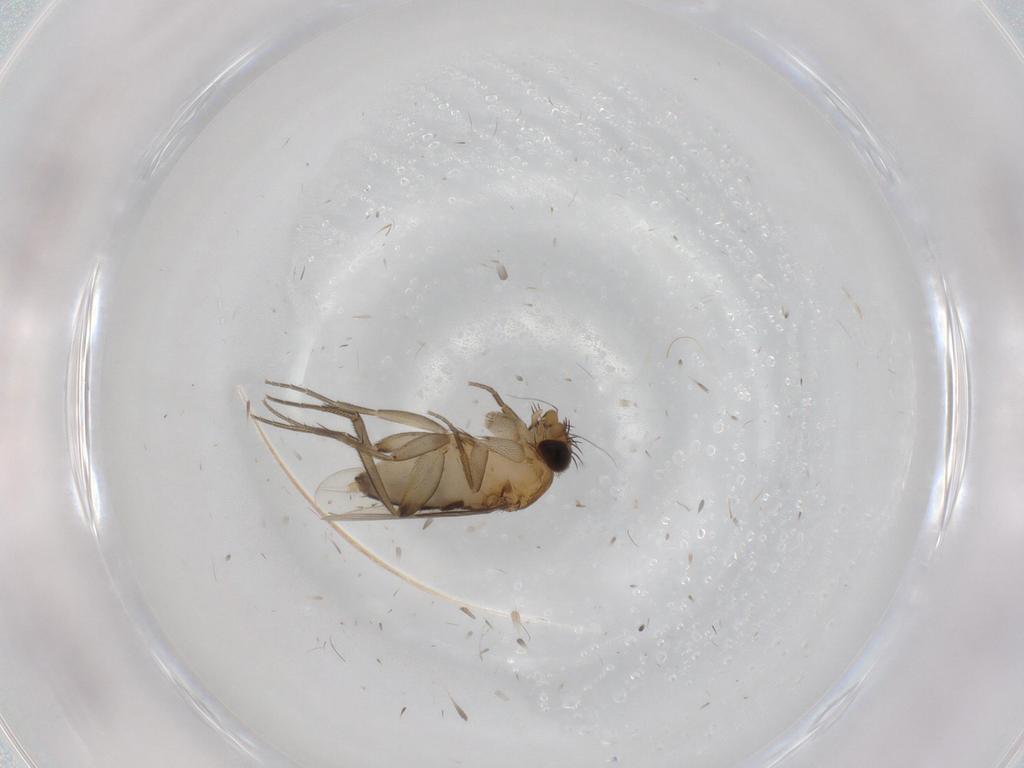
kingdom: Animalia
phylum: Arthropoda
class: Insecta
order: Diptera
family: Phoridae
